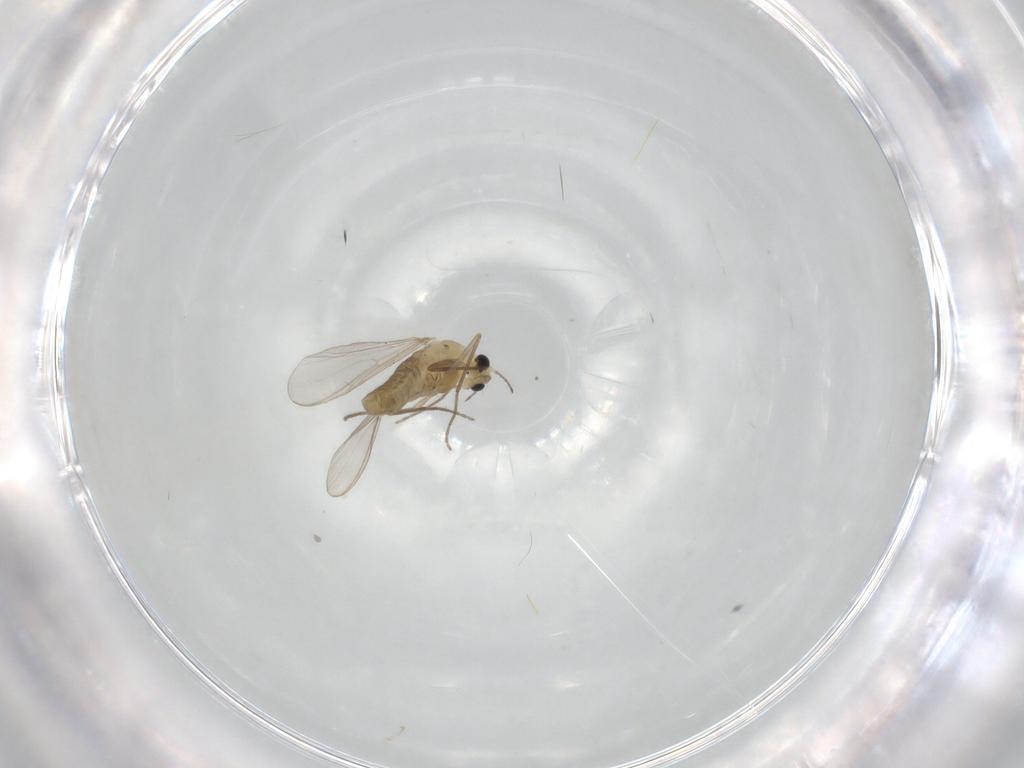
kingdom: Animalia
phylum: Arthropoda
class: Insecta
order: Diptera
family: Chironomidae
